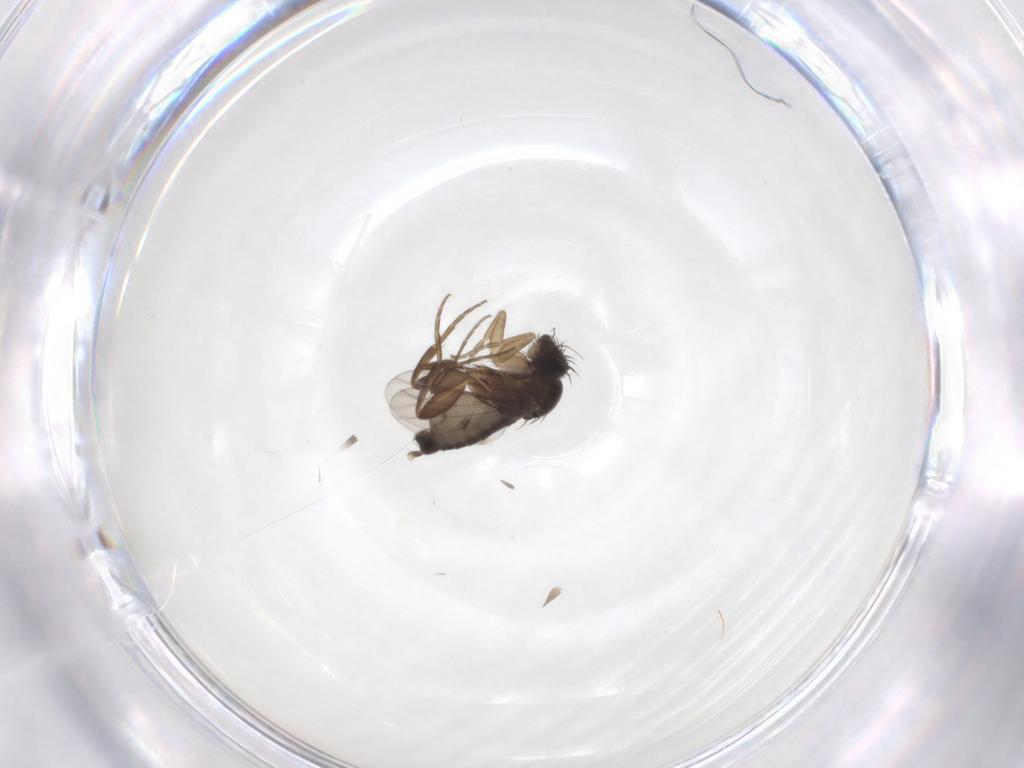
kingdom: Animalia
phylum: Arthropoda
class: Insecta
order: Diptera
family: Phoridae
